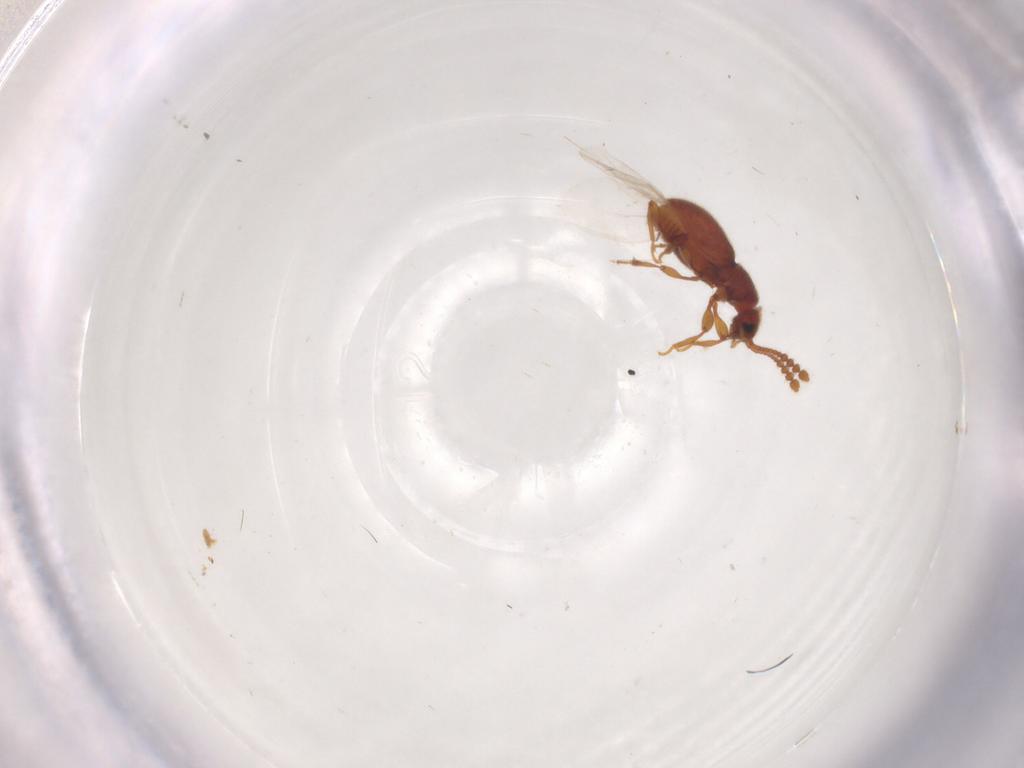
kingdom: Animalia
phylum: Arthropoda
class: Insecta
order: Coleoptera
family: Staphylinidae
